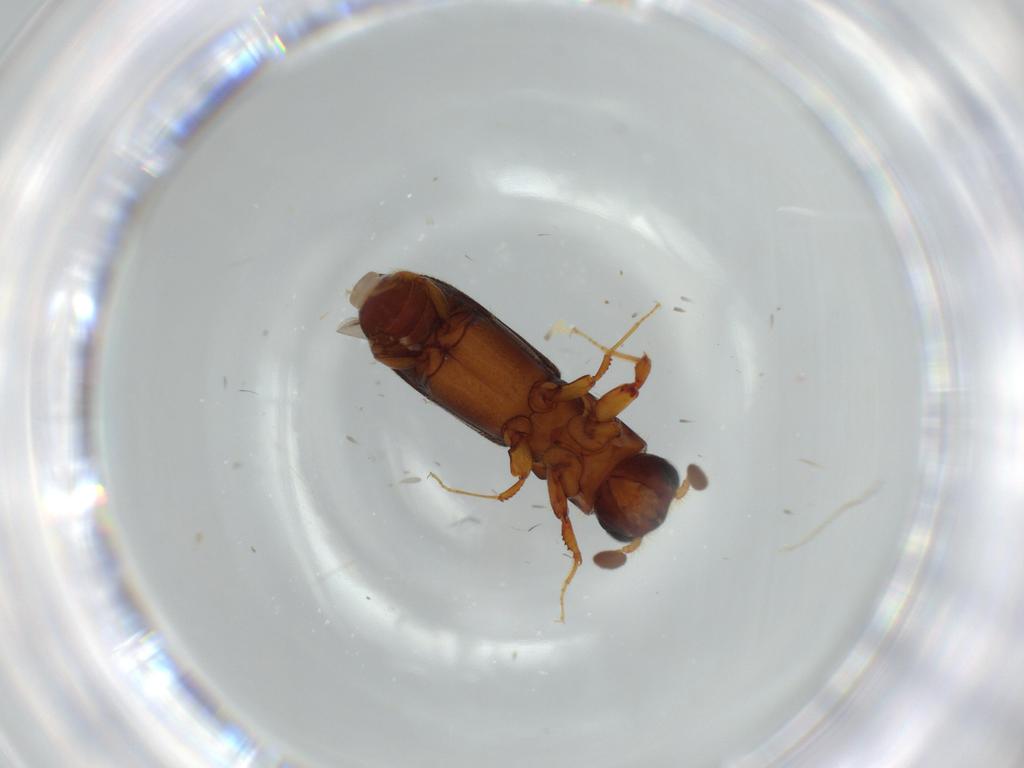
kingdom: Animalia
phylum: Arthropoda
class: Insecta
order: Coleoptera
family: Curculionidae
